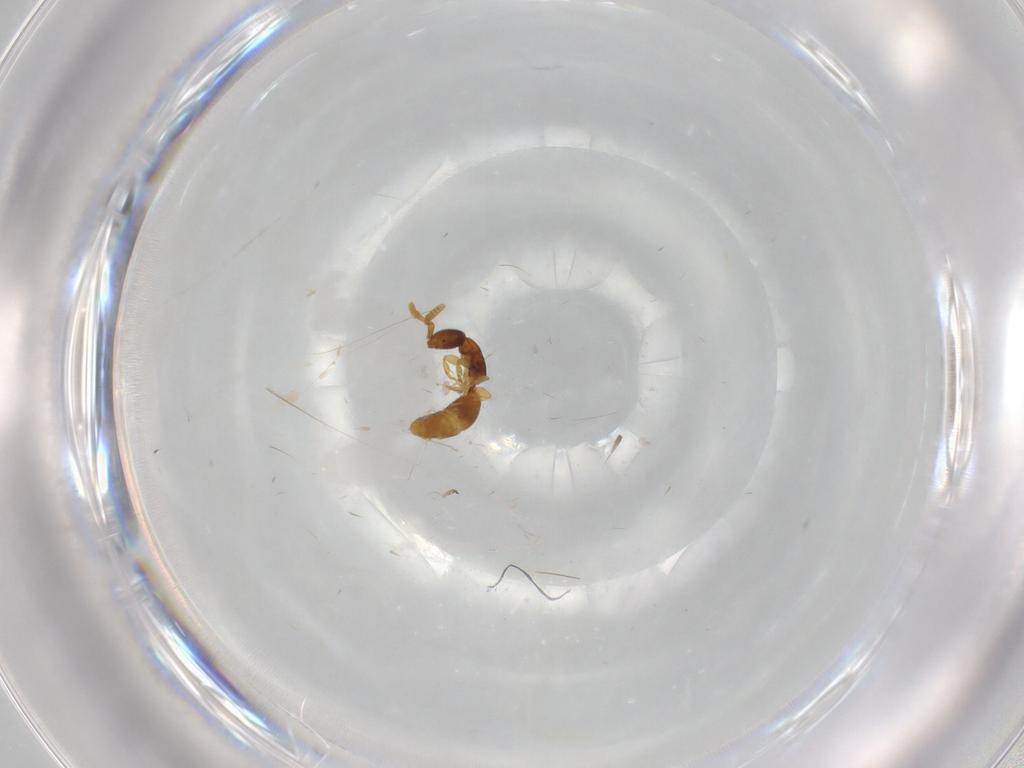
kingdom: Animalia
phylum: Arthropoda
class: Insecta
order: Hymenoptera
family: Bethylidae
